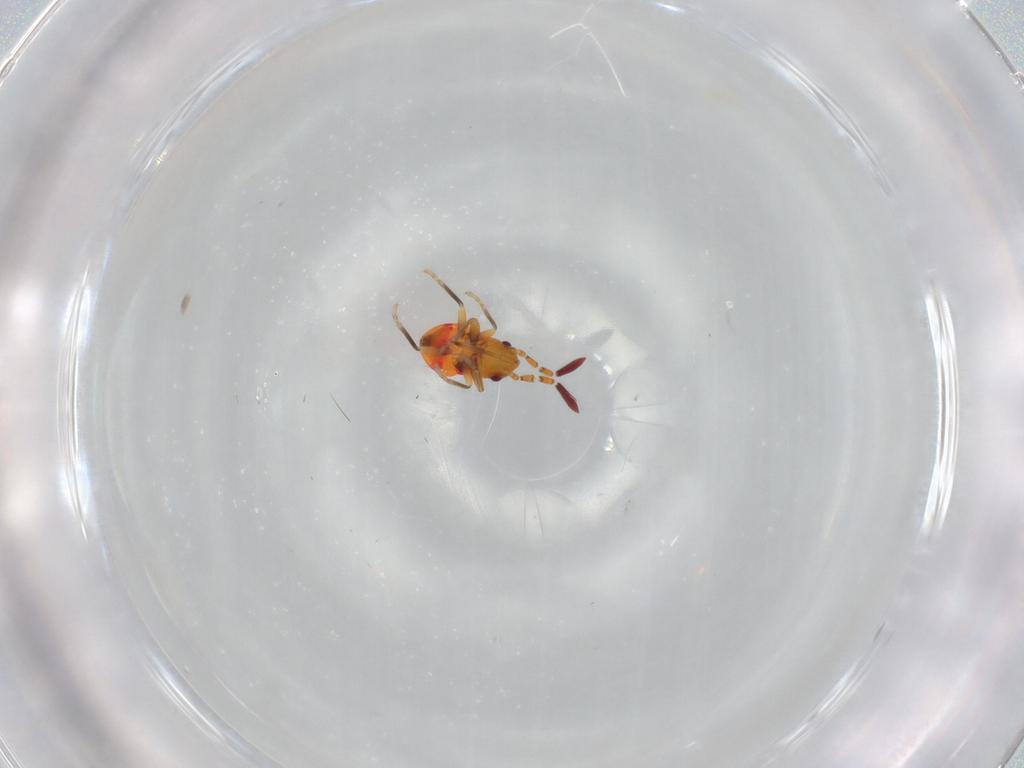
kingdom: Animalia
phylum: Arthropoda
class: Insecta
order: Hemiptera
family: Rhyparochromidae
